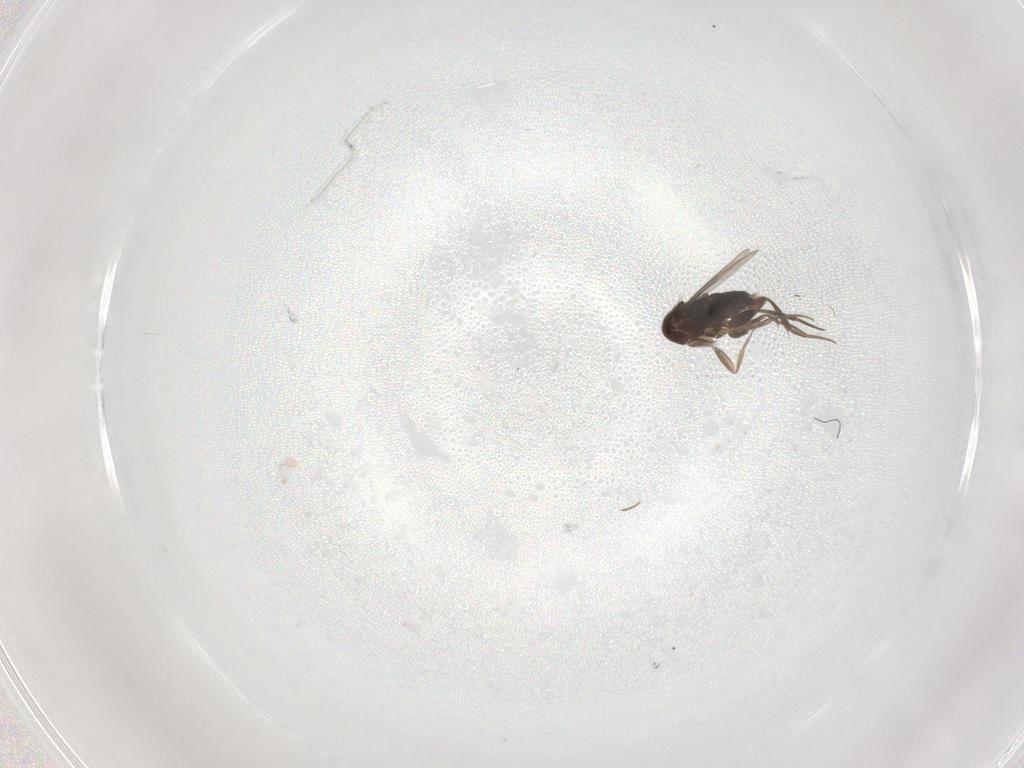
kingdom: Animalia
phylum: Arthropoda
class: Insecta
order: Diptera
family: Phoridae
